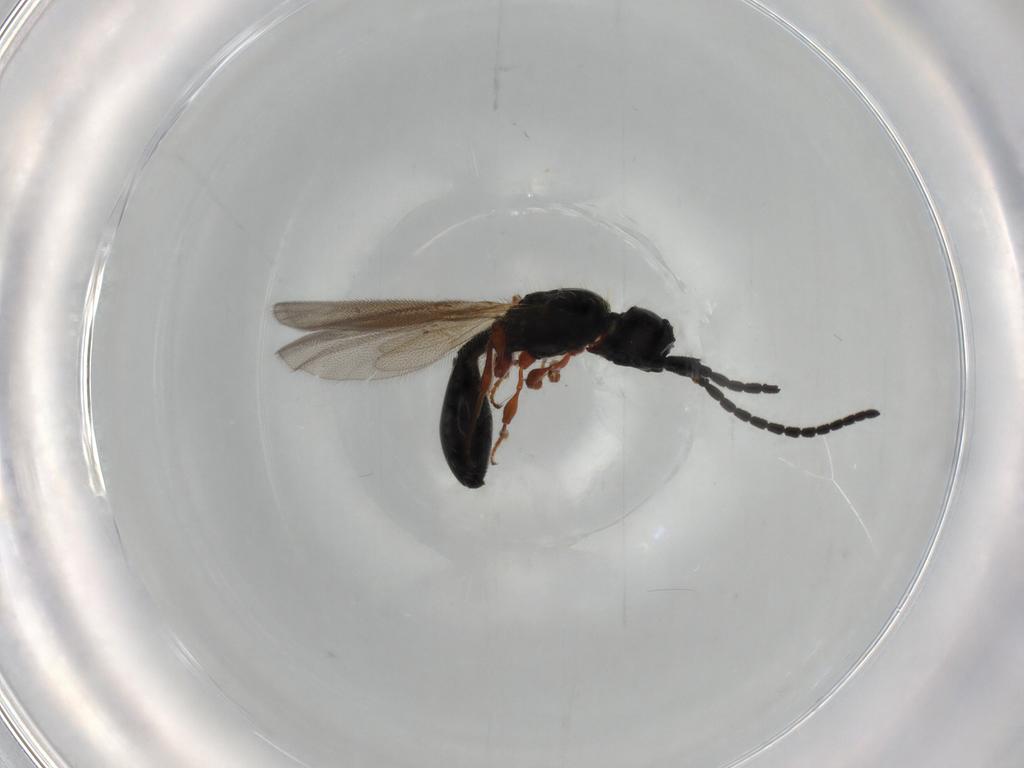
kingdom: Animalia
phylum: Arthropoda
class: Insecta
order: Hymenoptera
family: Diapriidae
